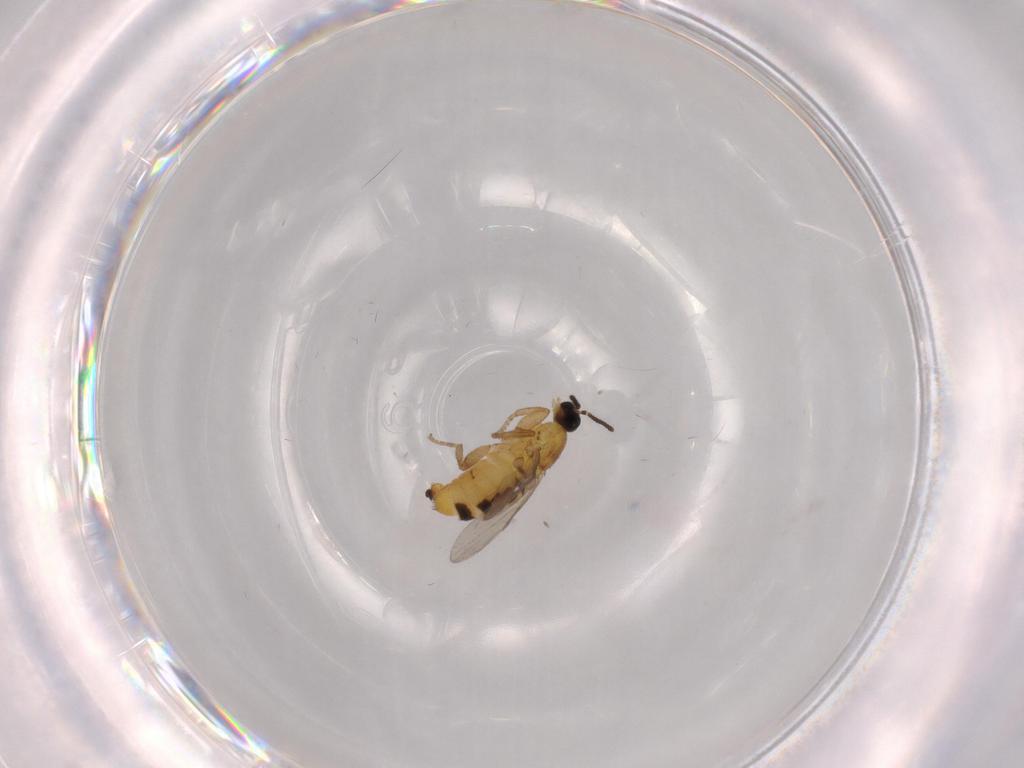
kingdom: Animalia
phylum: Arthropoda
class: Insecta
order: Diptera
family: Scatopsidae
